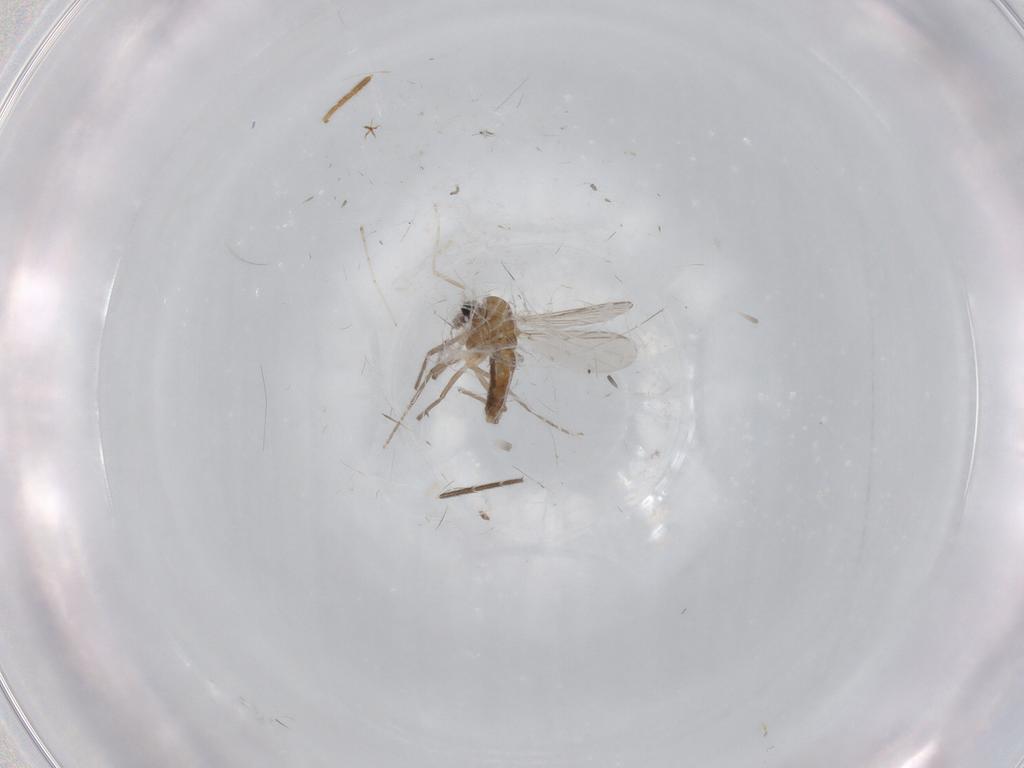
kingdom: Animalia
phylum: Arthropoda
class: Insecta
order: Diptera
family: Chironomidae
